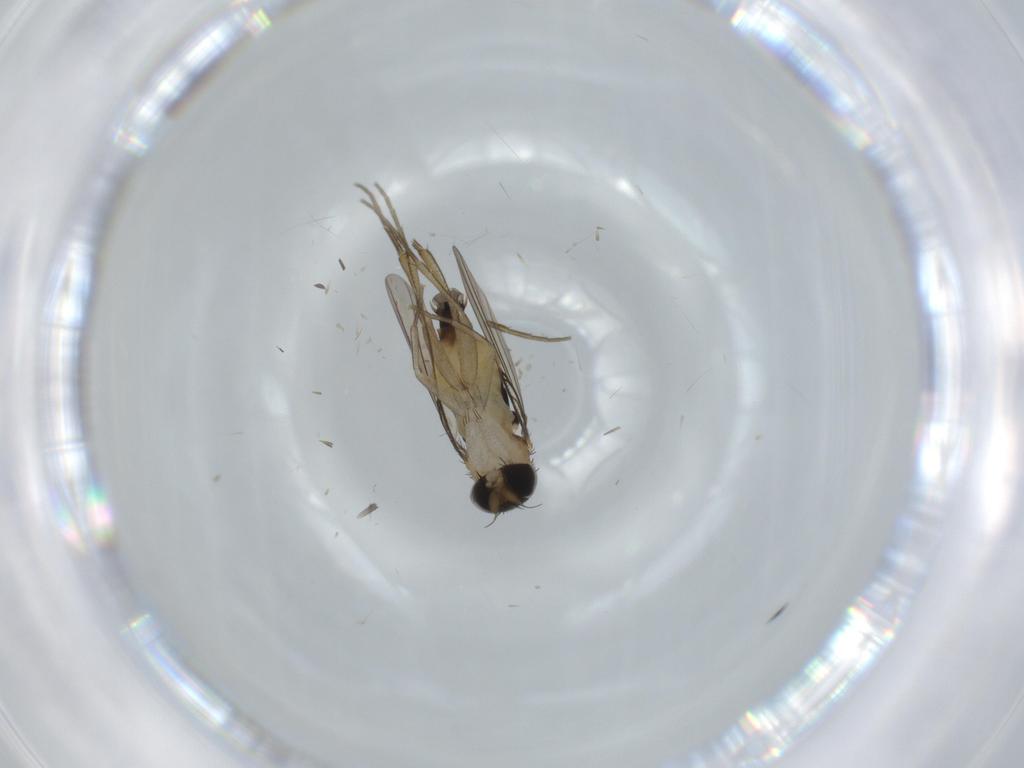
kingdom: Animalia
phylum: Arthropoda
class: Insecta
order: Diptera
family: Phoridae
